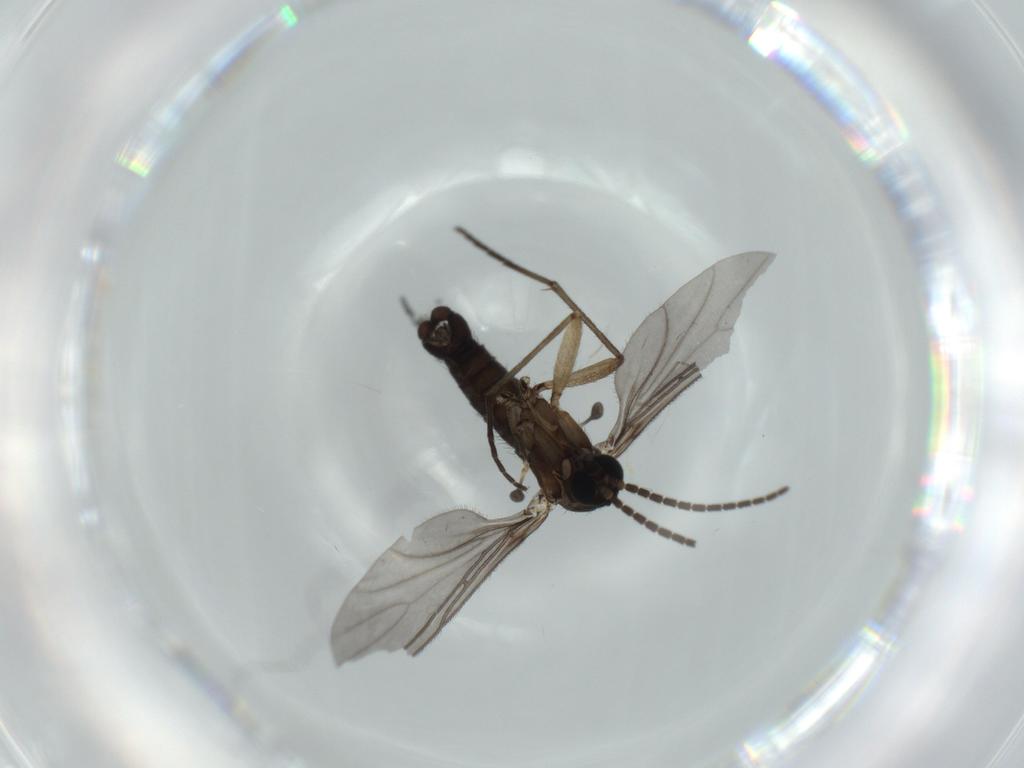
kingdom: Animalia
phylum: Arthropoda
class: Insecta
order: Diptera
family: Sciaridae
